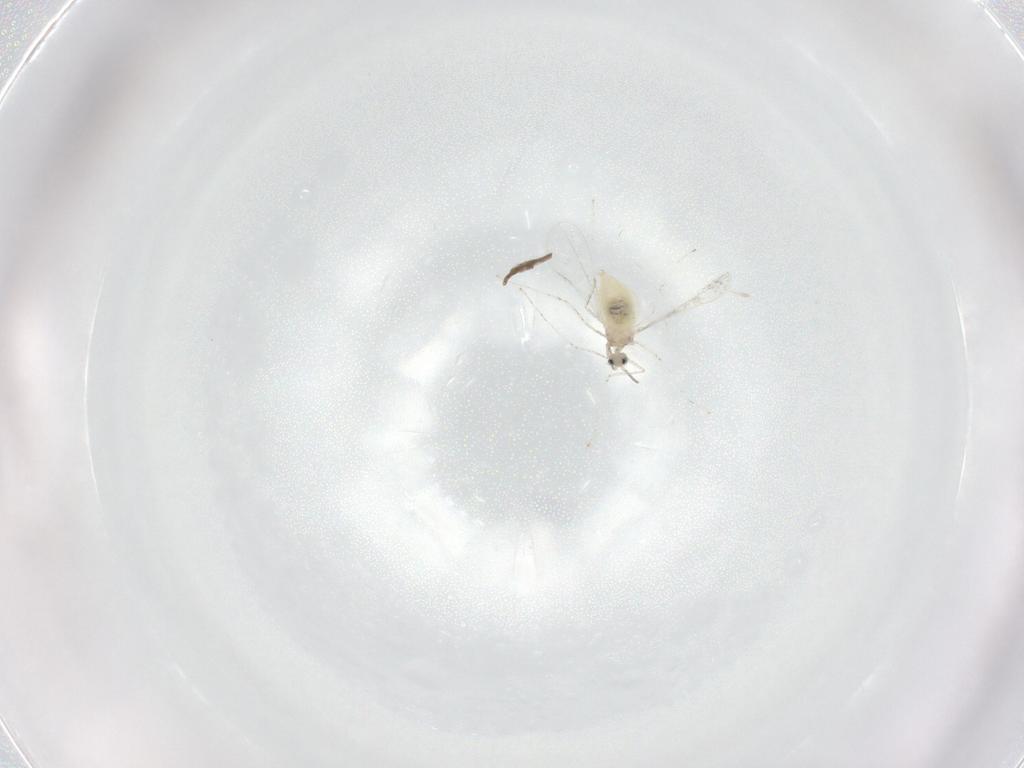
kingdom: Animalia
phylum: Arthropoda
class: Insecta
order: Diptera
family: Cecidomyiidae
